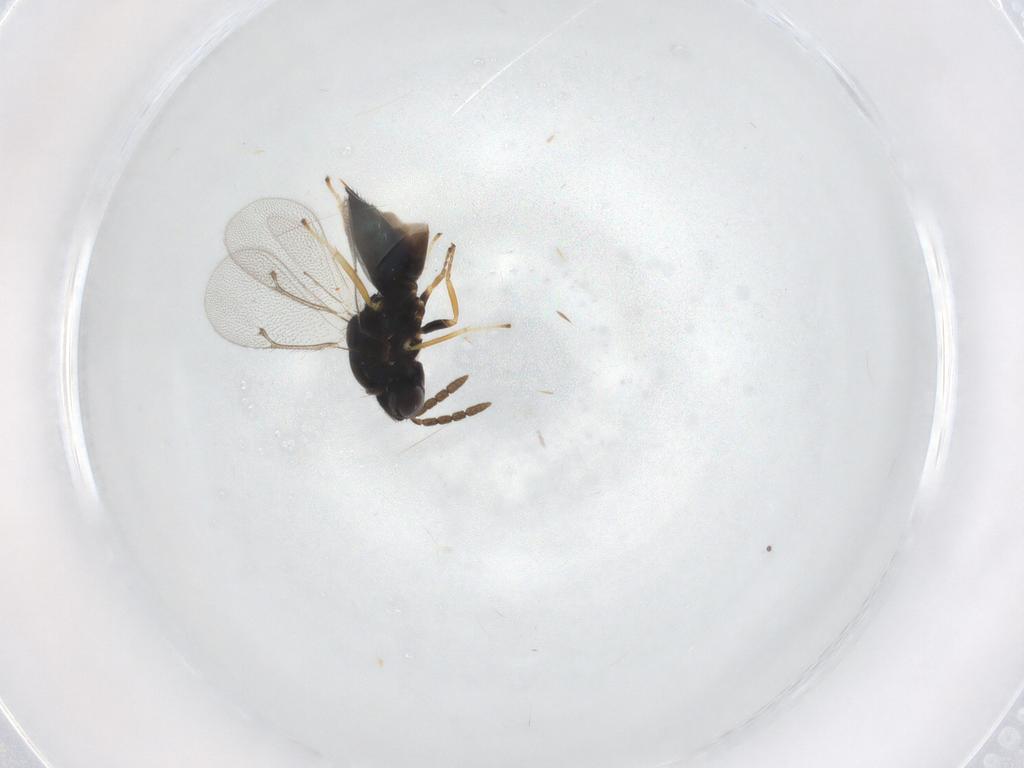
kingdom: Animalia
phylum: Arthropoda
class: Insecta
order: Hymenoptera
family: Eulophidae
